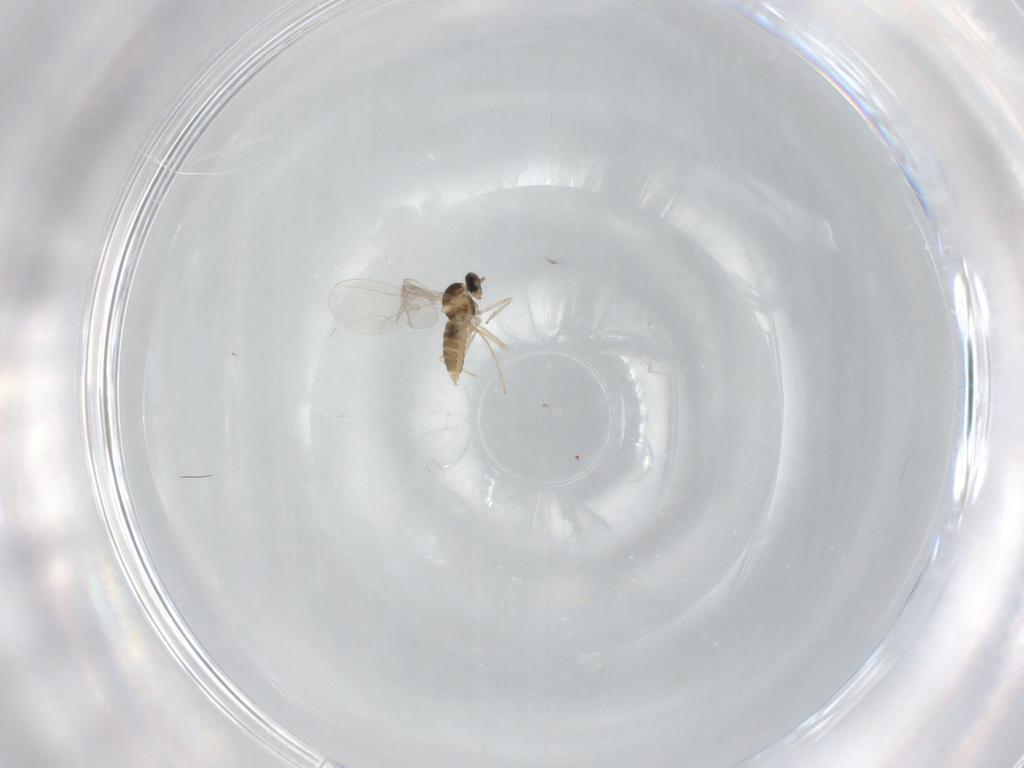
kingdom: Animalia
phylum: Arthropoda
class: Insecta
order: Diptera
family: Cecidomyiidae
